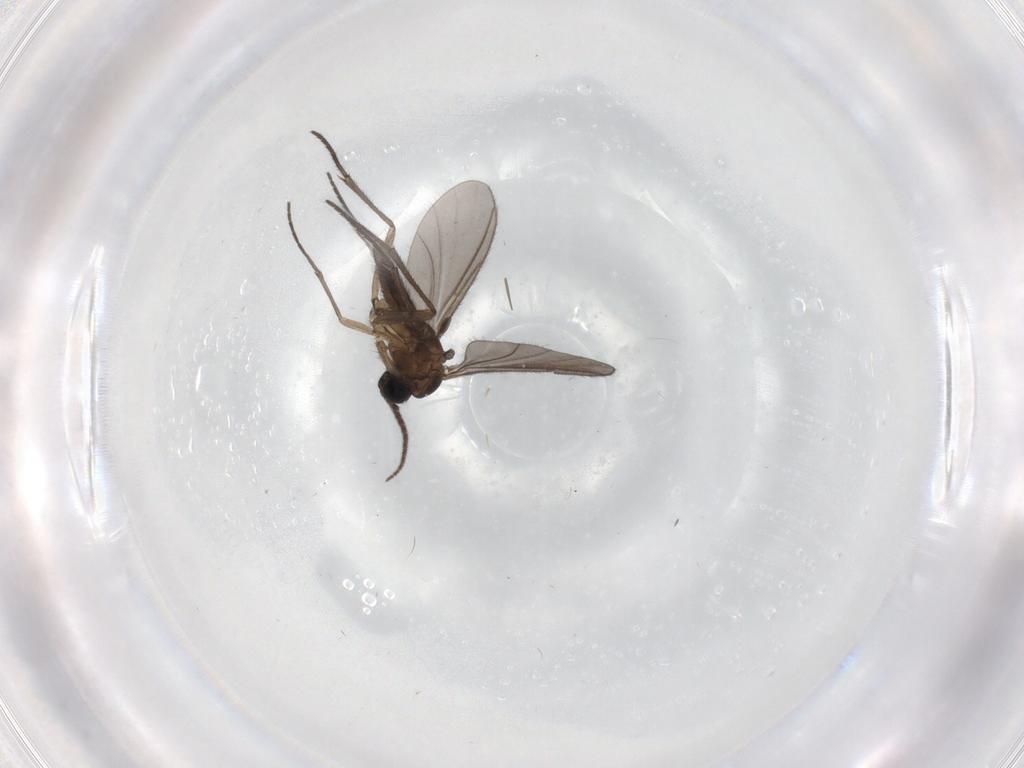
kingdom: Animalia
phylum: Arthropoda
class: Insecta
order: Diptera
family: Sciaridae
